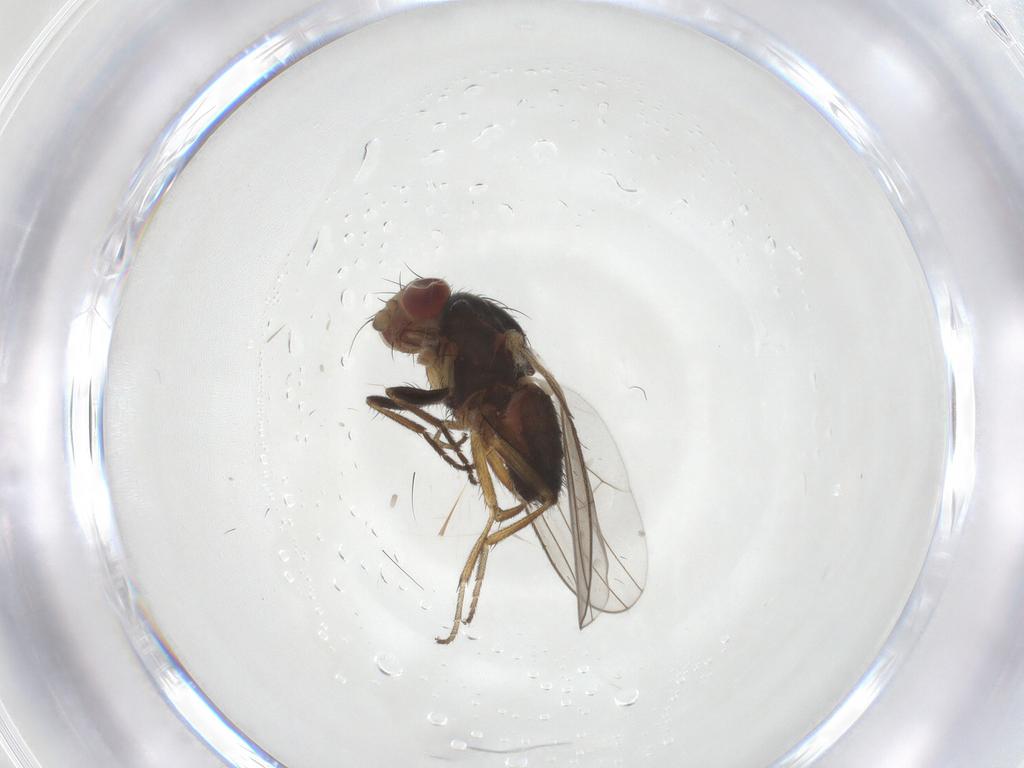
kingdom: Animalia
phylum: Arthropoda
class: Insecta
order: Diptera
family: Heleomyzidae
